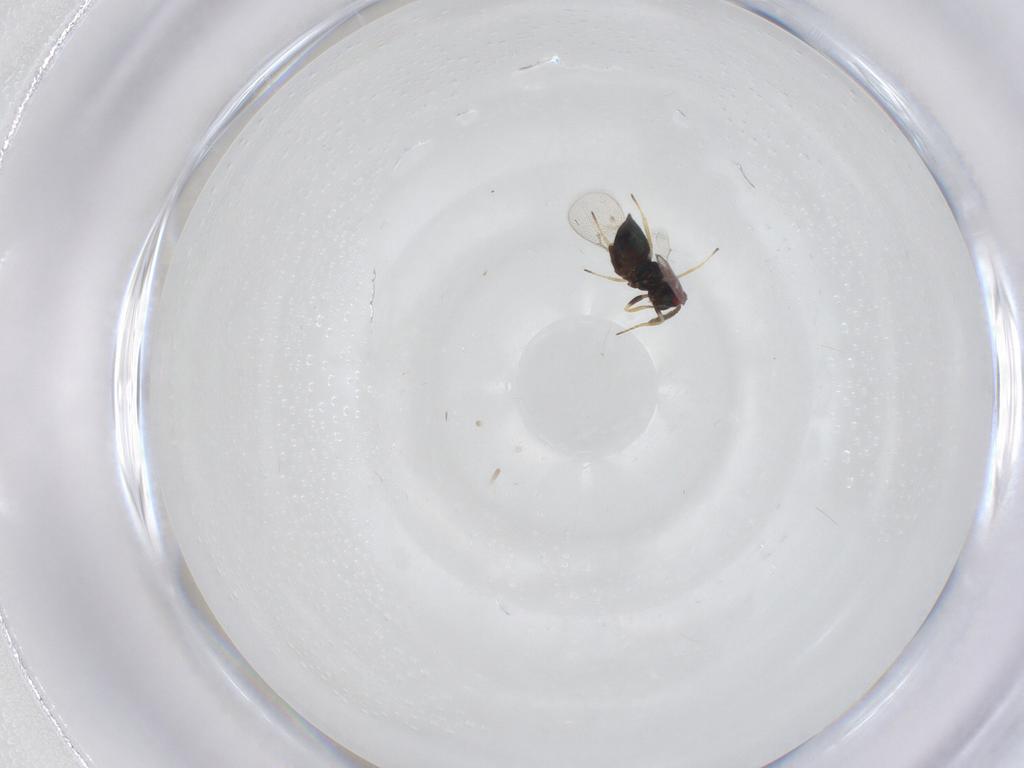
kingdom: Animalia
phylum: Arthropoda
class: Insecta
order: Hymenoptera
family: Eulophidae
